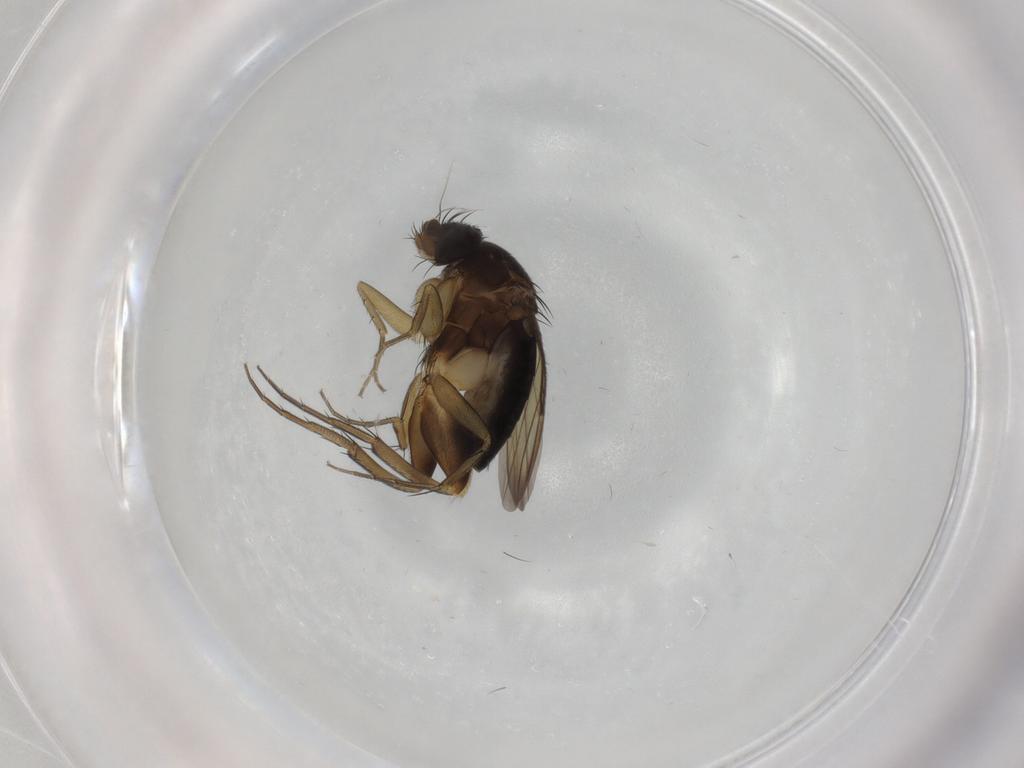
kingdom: Animalia
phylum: Arthropoda
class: Insecta
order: Diptera
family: Phoridae
